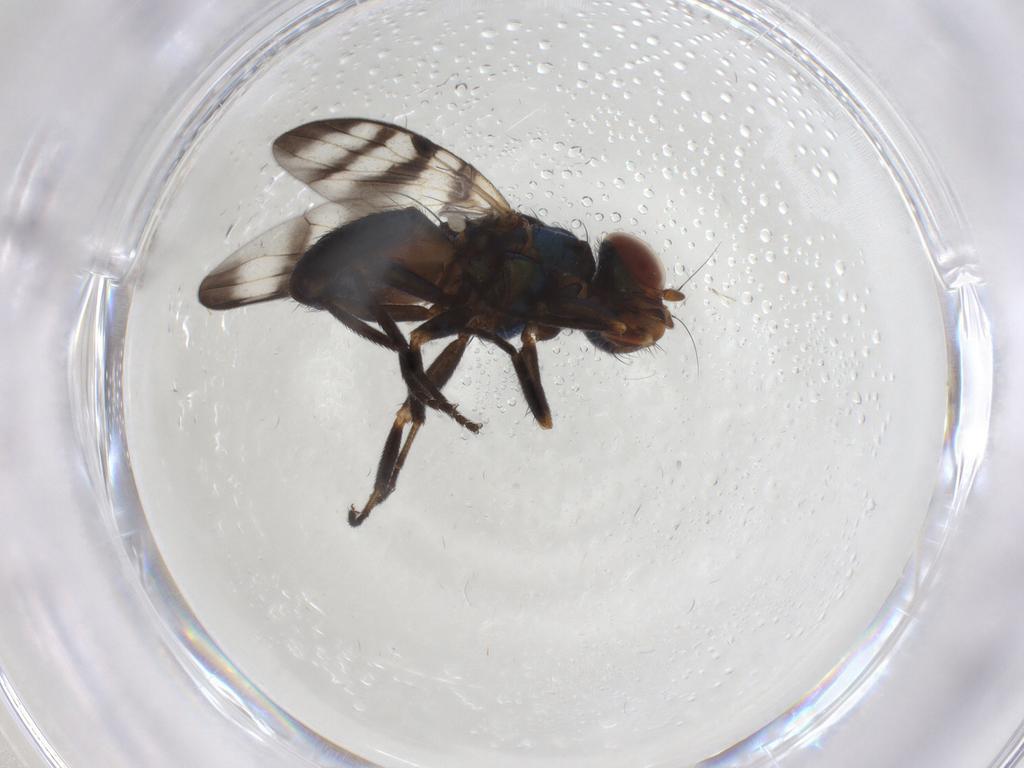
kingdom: Animalia
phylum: Arthropoda
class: Insecta
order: Diptera
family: Ulidiidae
